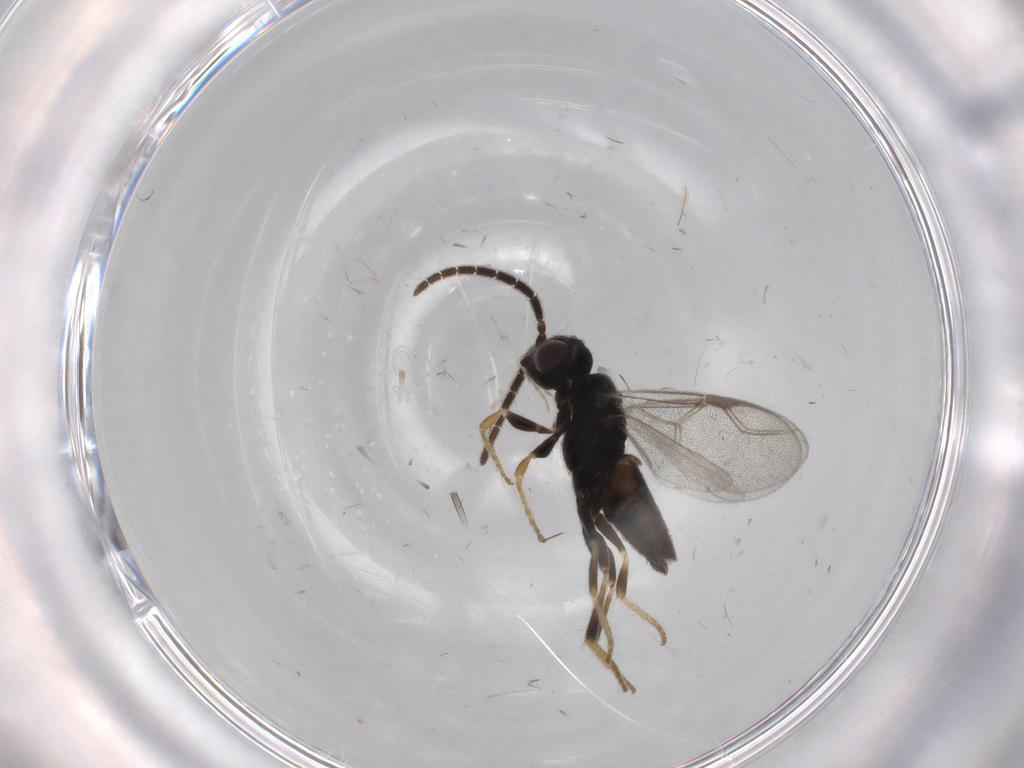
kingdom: Animalia
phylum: Arthropoda
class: Insecta
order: Hymenoptera
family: Dryinidae
